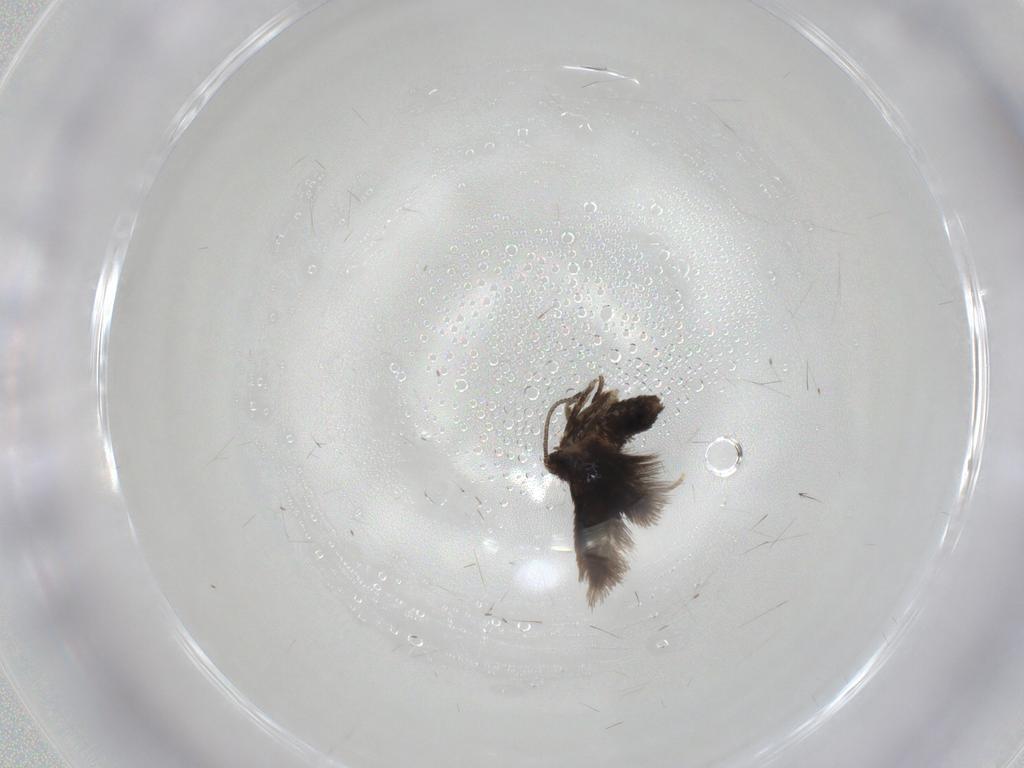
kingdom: Animalia
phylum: Arthropoda
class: Insecta
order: Lepidoptera
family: Nepticulidae
